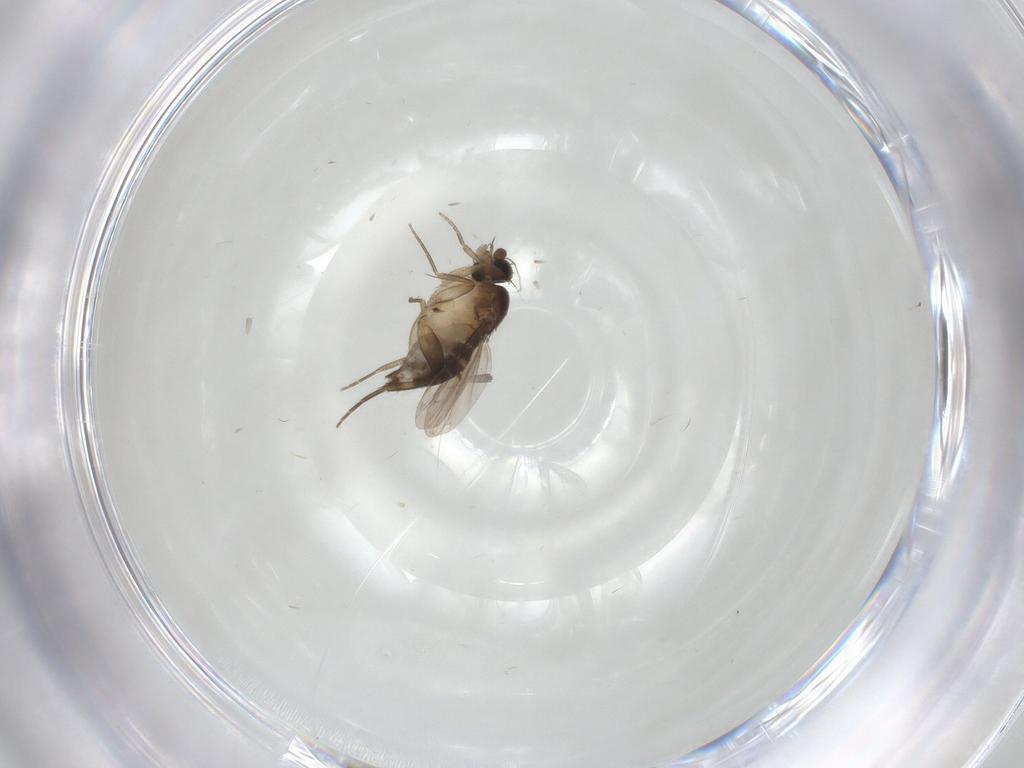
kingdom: Animalia
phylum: Arthropoda
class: Insecta
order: Diptera
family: Phoridae
